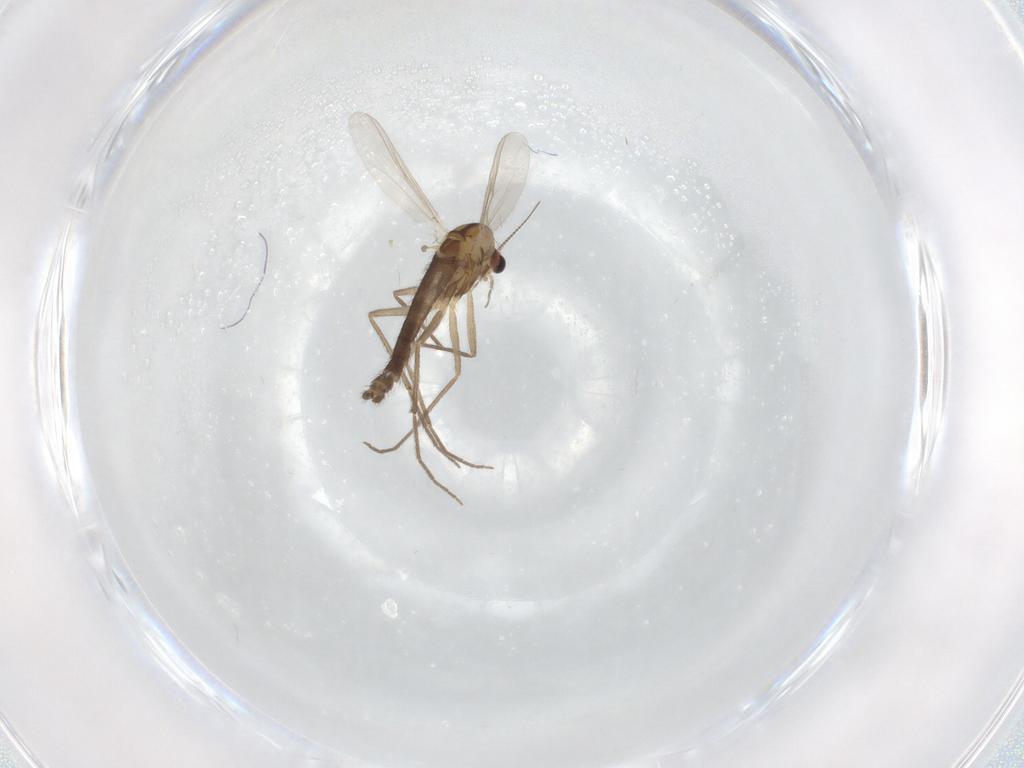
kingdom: Animalia
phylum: Arthropoda
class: Insecta
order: Diptera
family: Chironomidae
